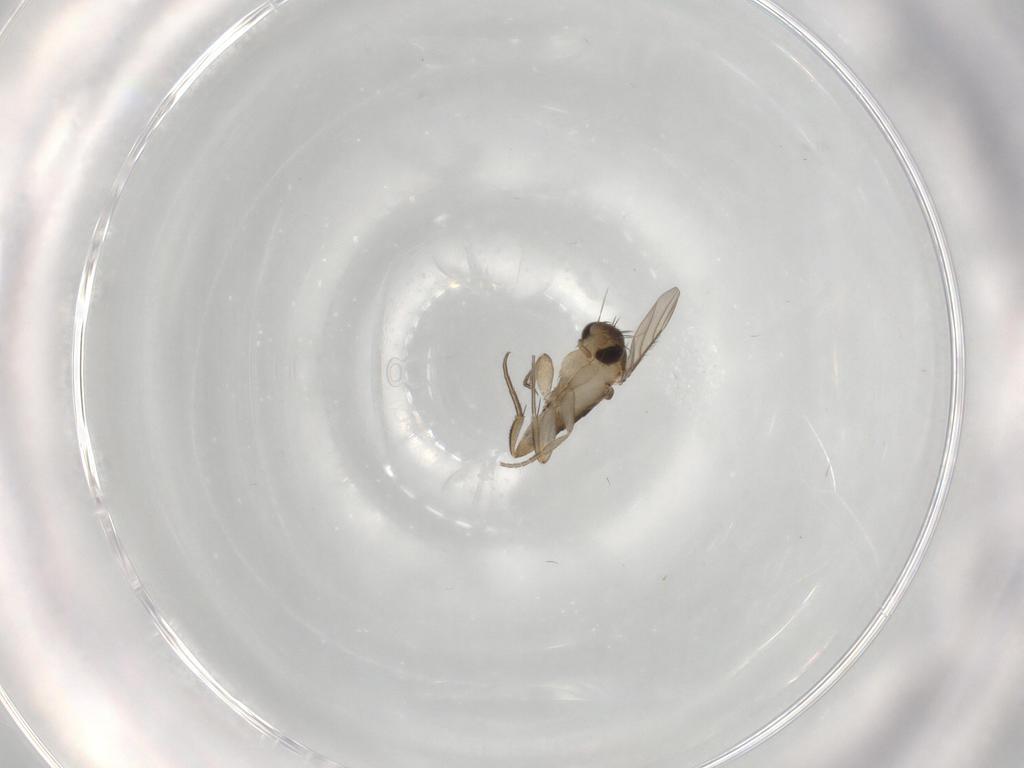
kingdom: Animalia
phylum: Arthropoda
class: Insecta
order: Diptera
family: Phoridae
